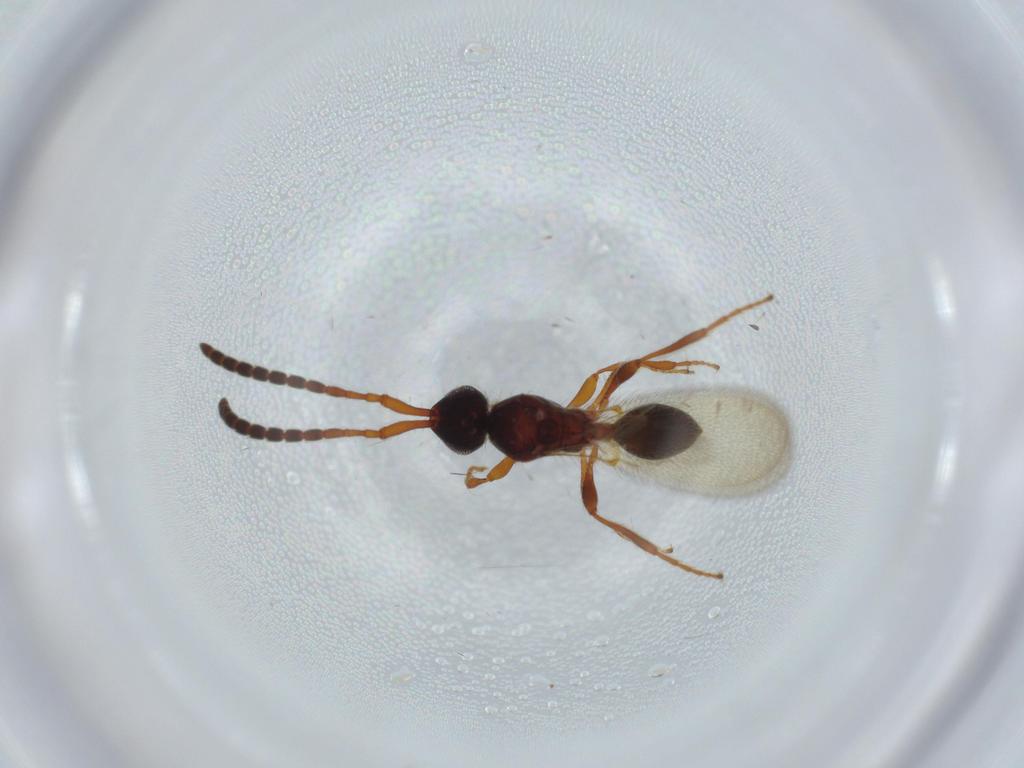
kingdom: Animalia
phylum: Arthropoda
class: Insecta
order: Hymenoptera
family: Diapriidae
